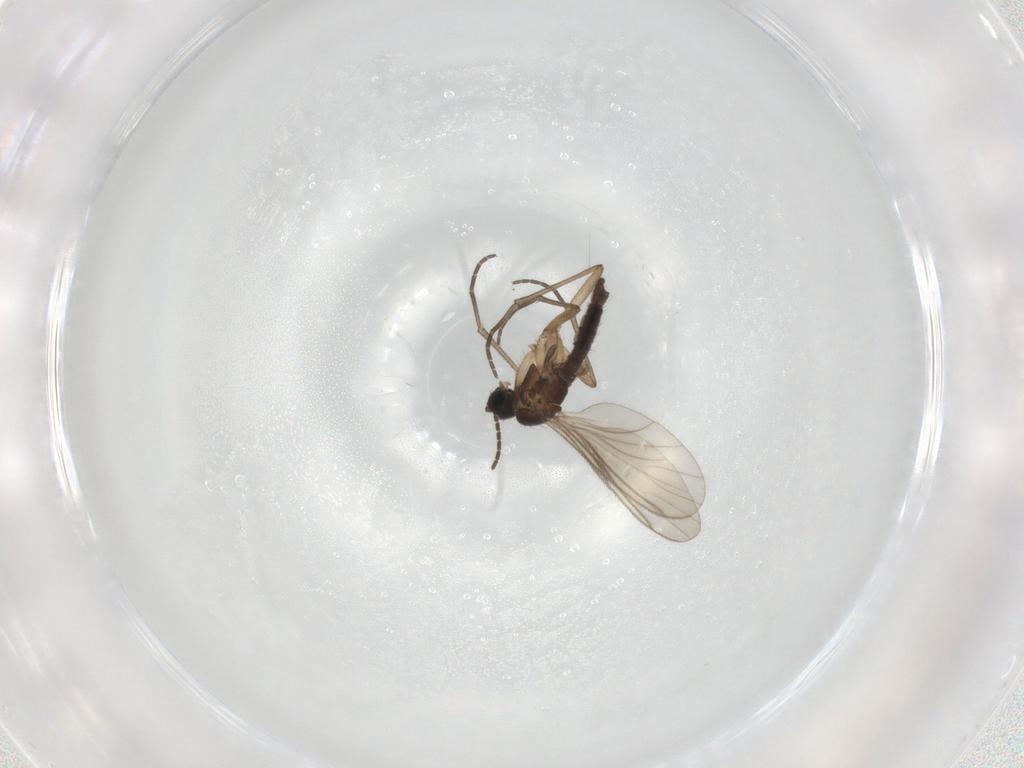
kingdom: Animalia
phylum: Arthropoda
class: Insecta
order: Diptera
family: Sciaridae
